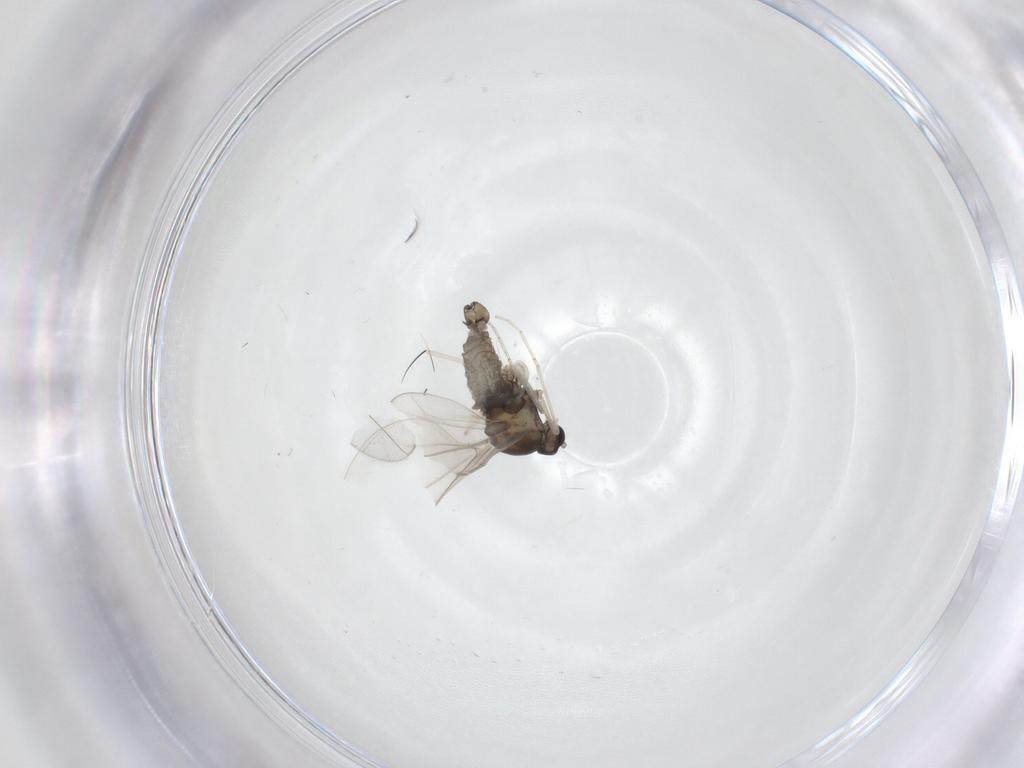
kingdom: Animalia
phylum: Arthropoda
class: Insecta
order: Diptera
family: Cecidomyiidae
